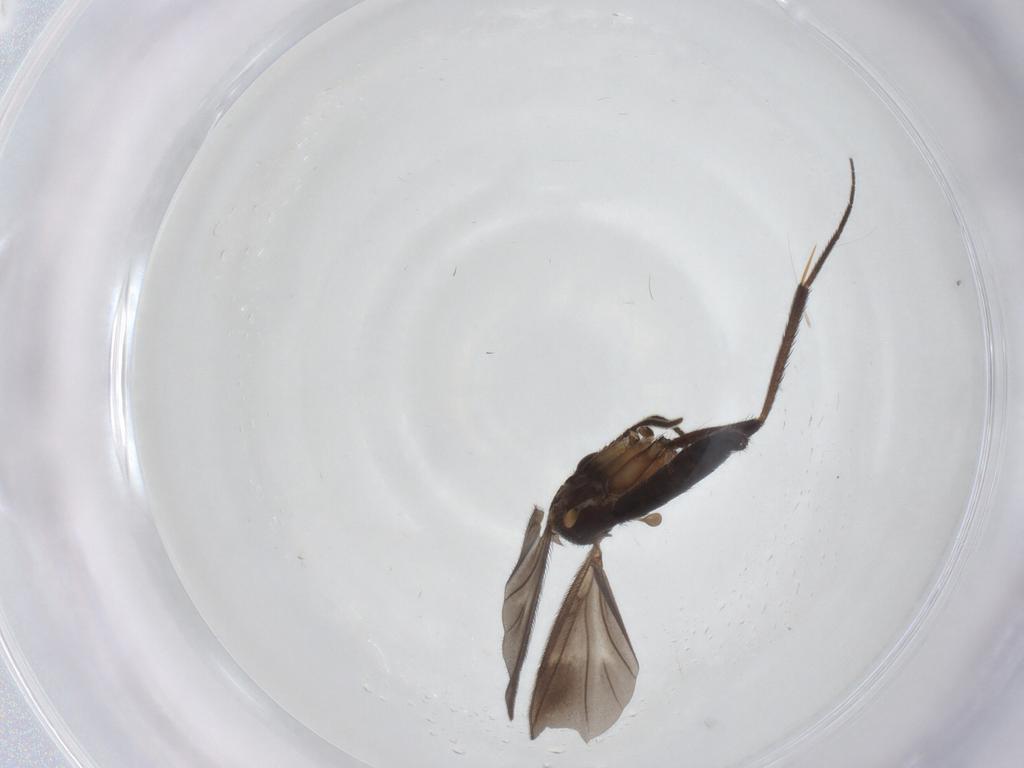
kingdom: Animalia
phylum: Arthropoda
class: Insecta
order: Diptera
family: Mycetophilidae
